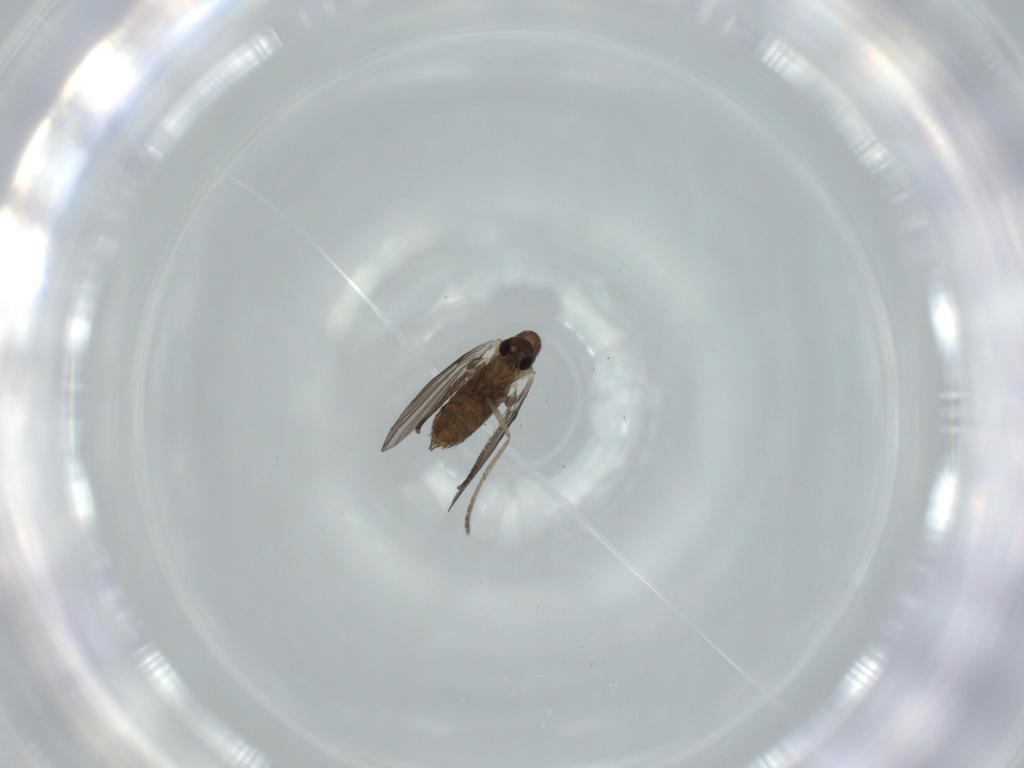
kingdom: Animalia
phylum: Arthropoda
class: Insecta
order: Diptera
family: Psychodidae
